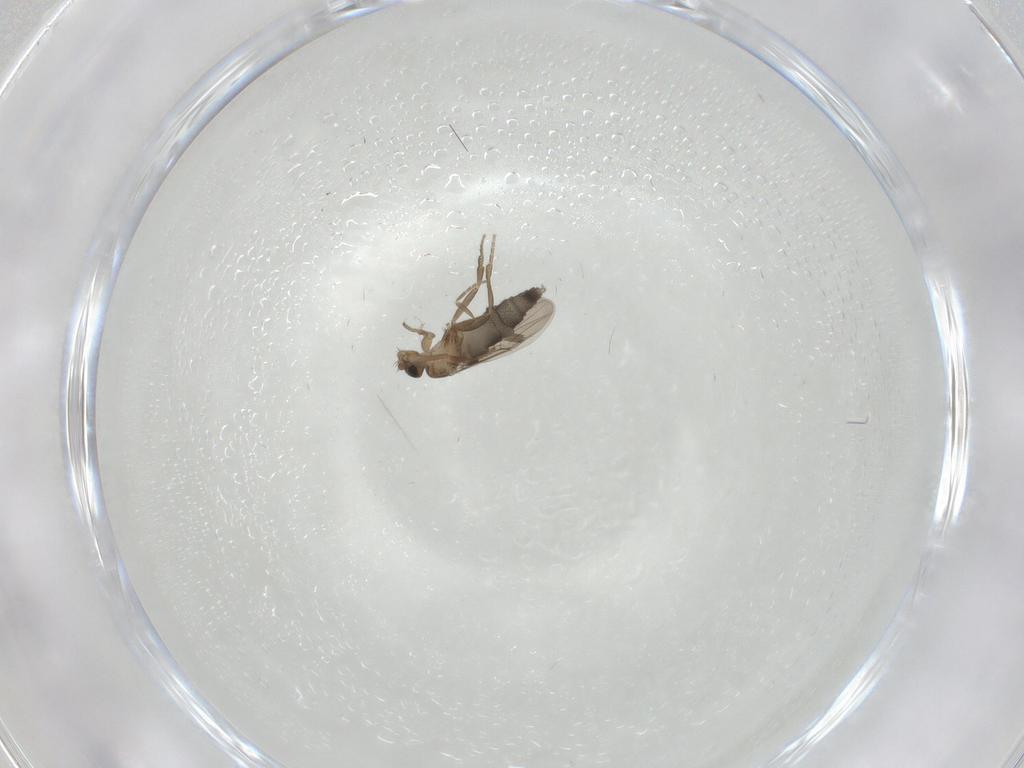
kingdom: Animalia
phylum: Arthropoda
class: Insecta
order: Diptera
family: Phoridae
